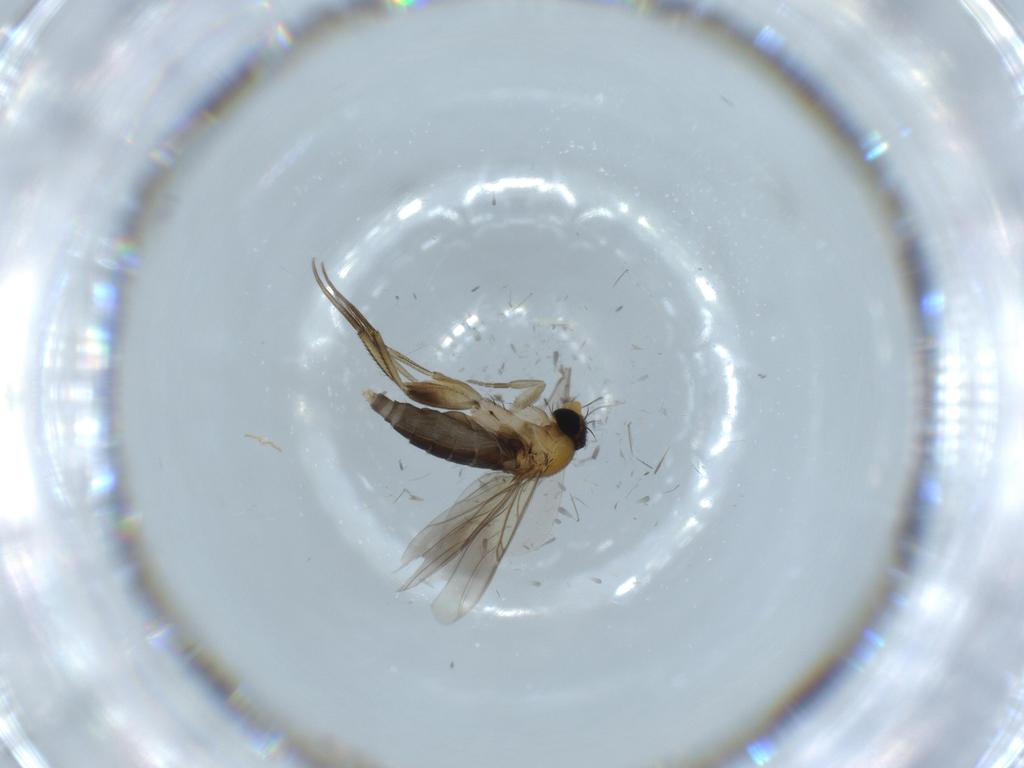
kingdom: Animalia
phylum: Arthropoda
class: Insecta
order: Diptera
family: Phoridae
